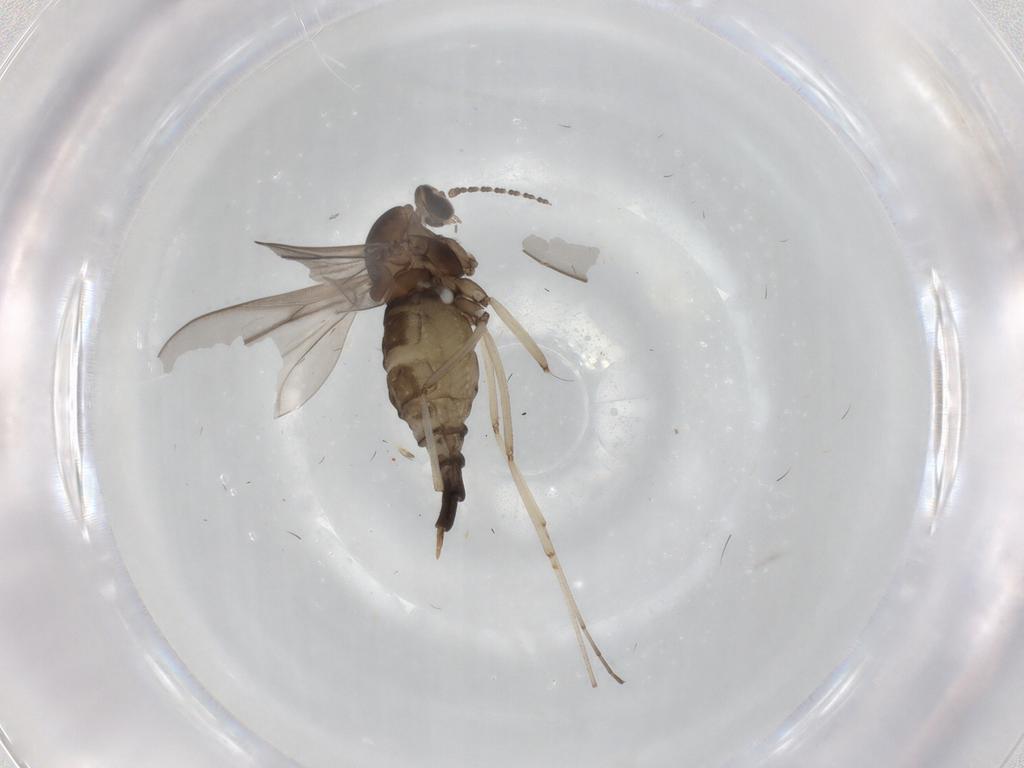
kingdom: Animalia
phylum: Arthropoda
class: Insecta
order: Diptera
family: Cecidomyiidae
